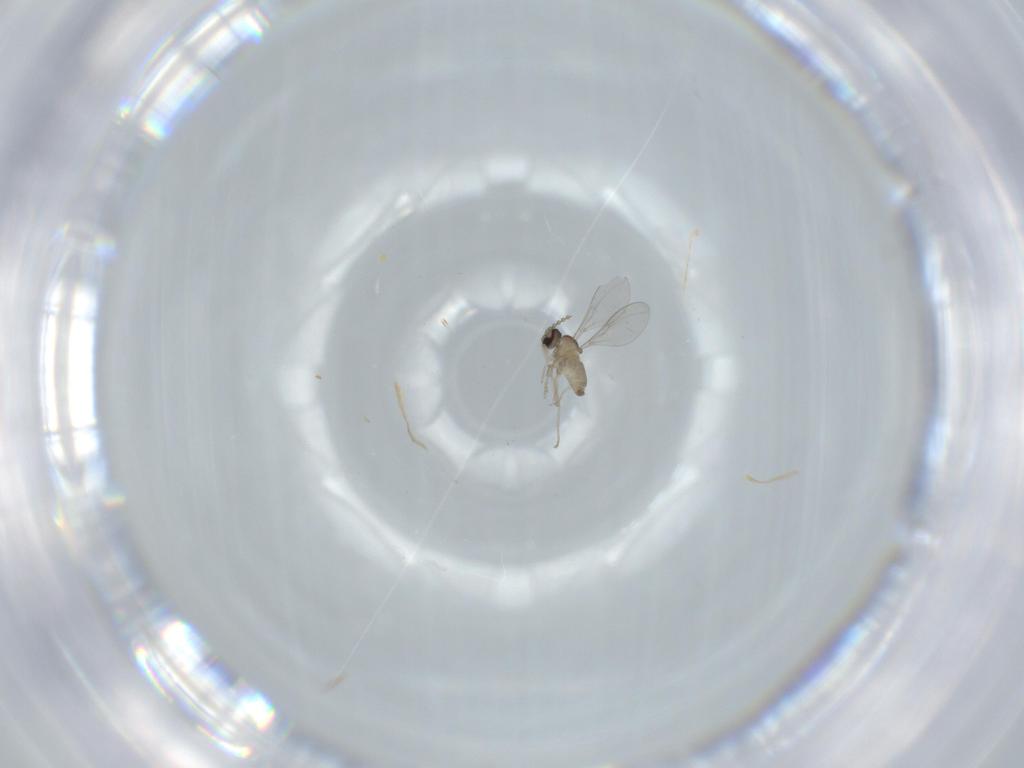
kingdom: Animalia
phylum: Arthropoda
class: Insecta
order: Diptera
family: Cecidomyiidae
